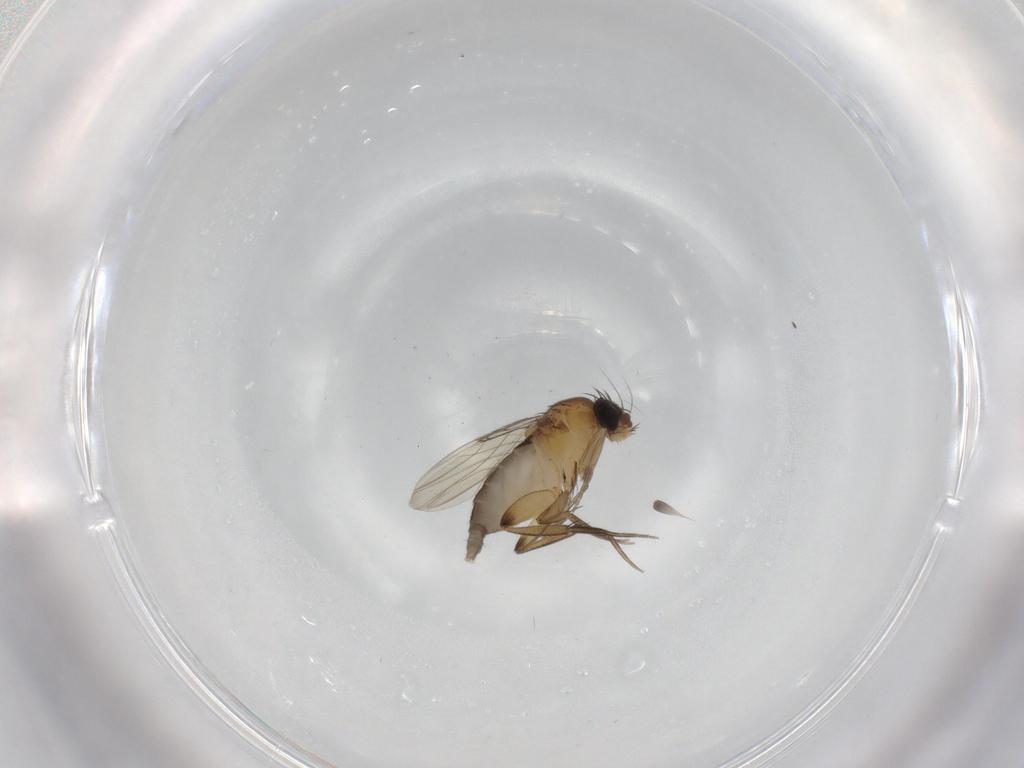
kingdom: Animalia
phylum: Arthropoda
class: Insecta
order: Diptera
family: Phoridae
